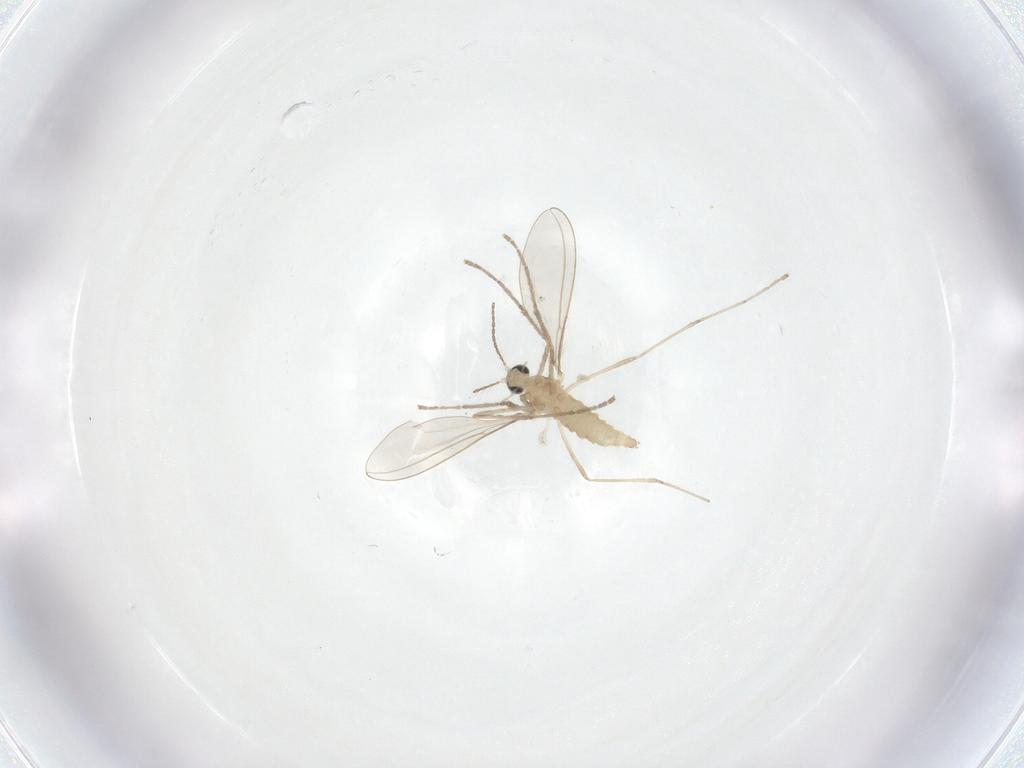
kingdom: Animalia
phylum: Arthropoda
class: Insecta
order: Diptera
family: Cecidomyiidae
